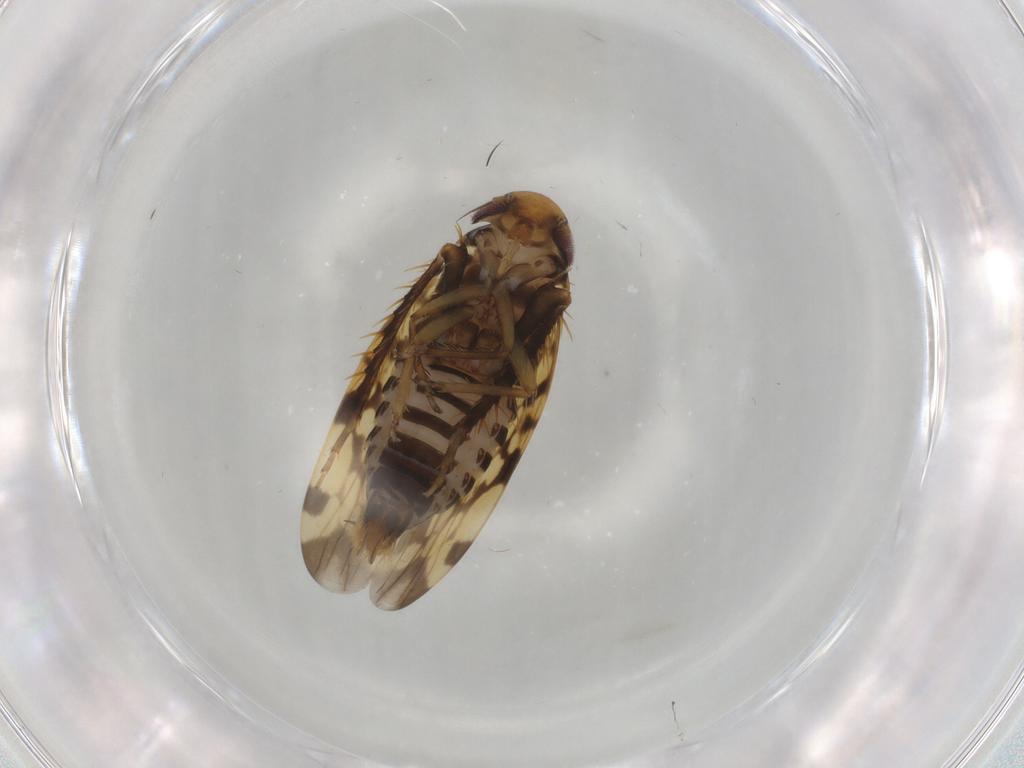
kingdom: Animalia
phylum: Arthropoda
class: Insecta
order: Hemiptera
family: Cicadellidae
